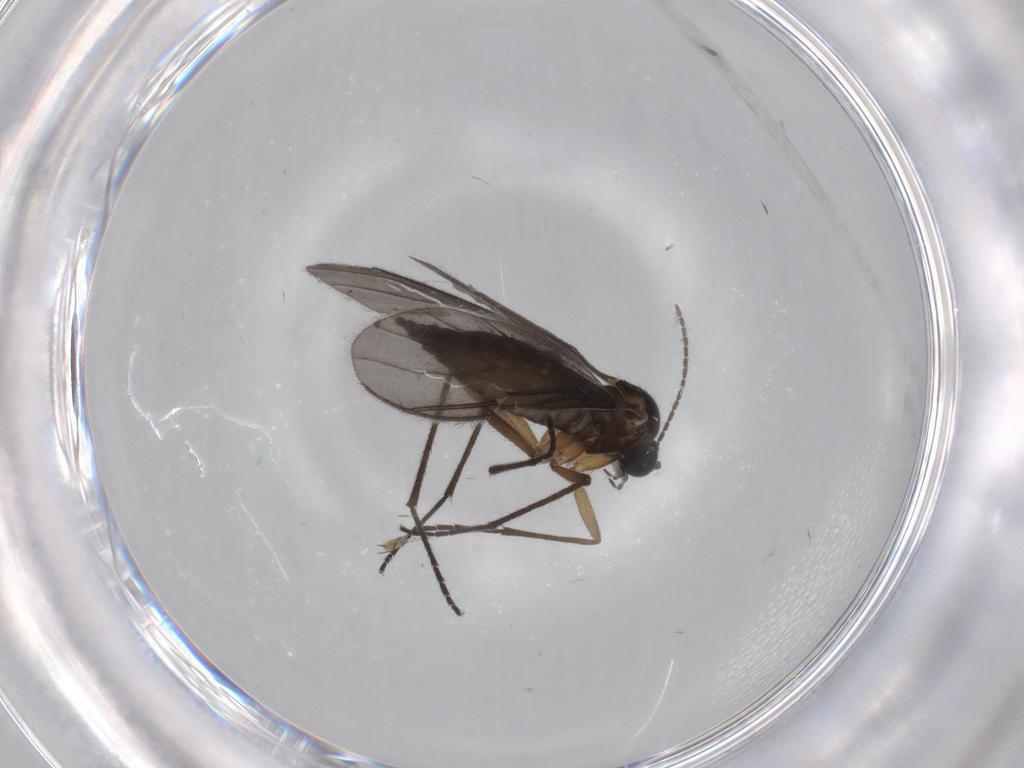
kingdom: Animalia
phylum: Arthropoda
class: Insecta
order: Diptera
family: Sciaridae
